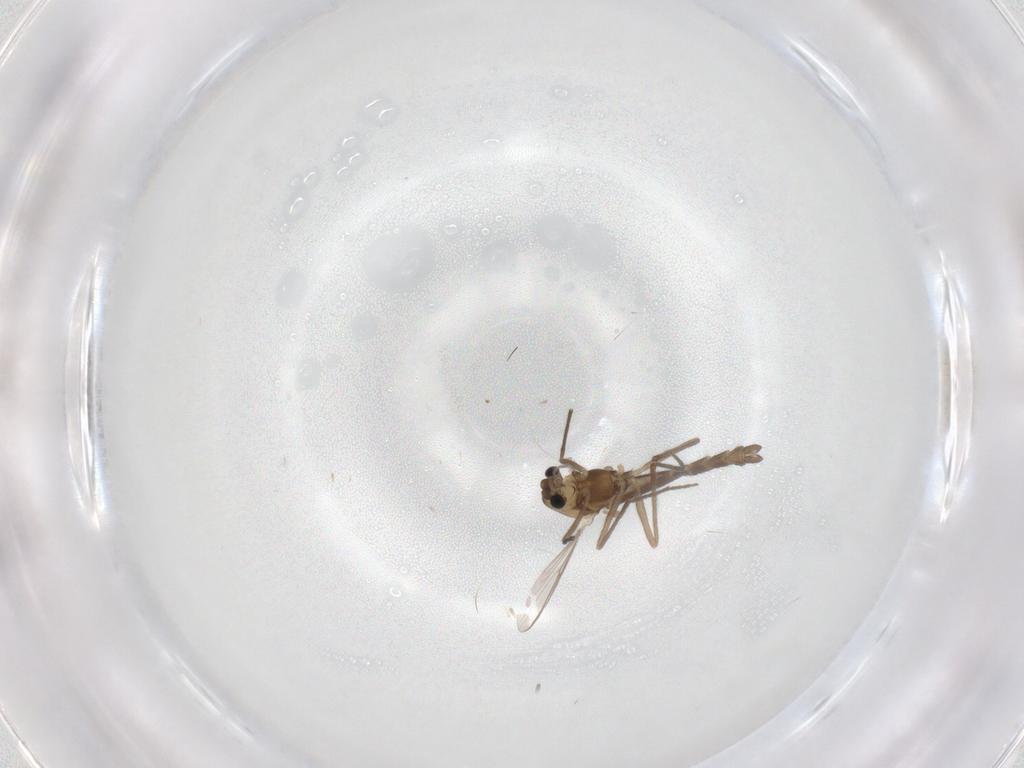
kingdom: Animalia
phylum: Arthropoda
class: Insecta
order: Diptera
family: Chironomidae
